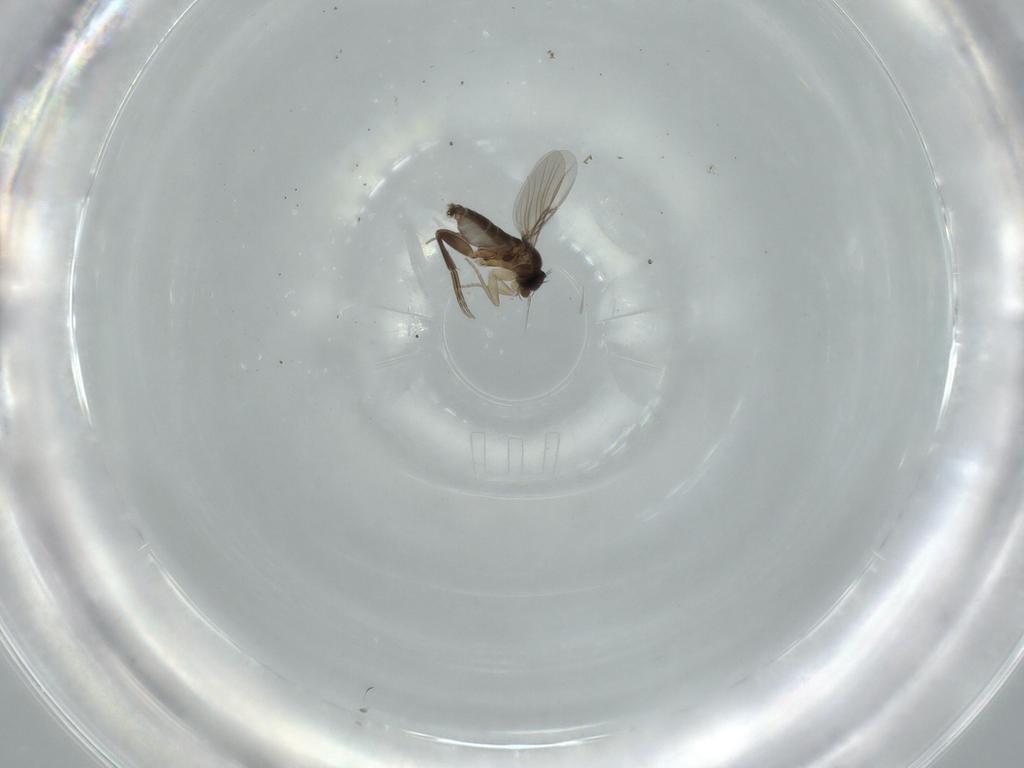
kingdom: Animalia
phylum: Arthropoda
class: Insecta
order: Diptera
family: Phoridae
